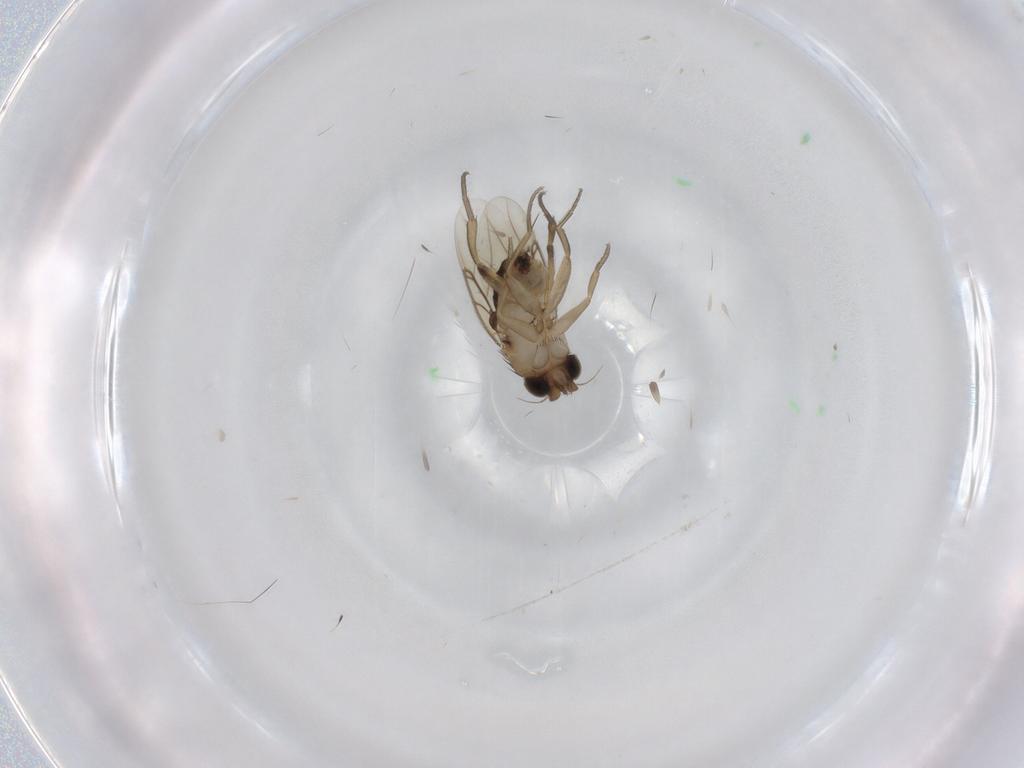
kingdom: Animalia
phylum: Arthropoda
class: Insecta
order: Diptera
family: Phoridae
